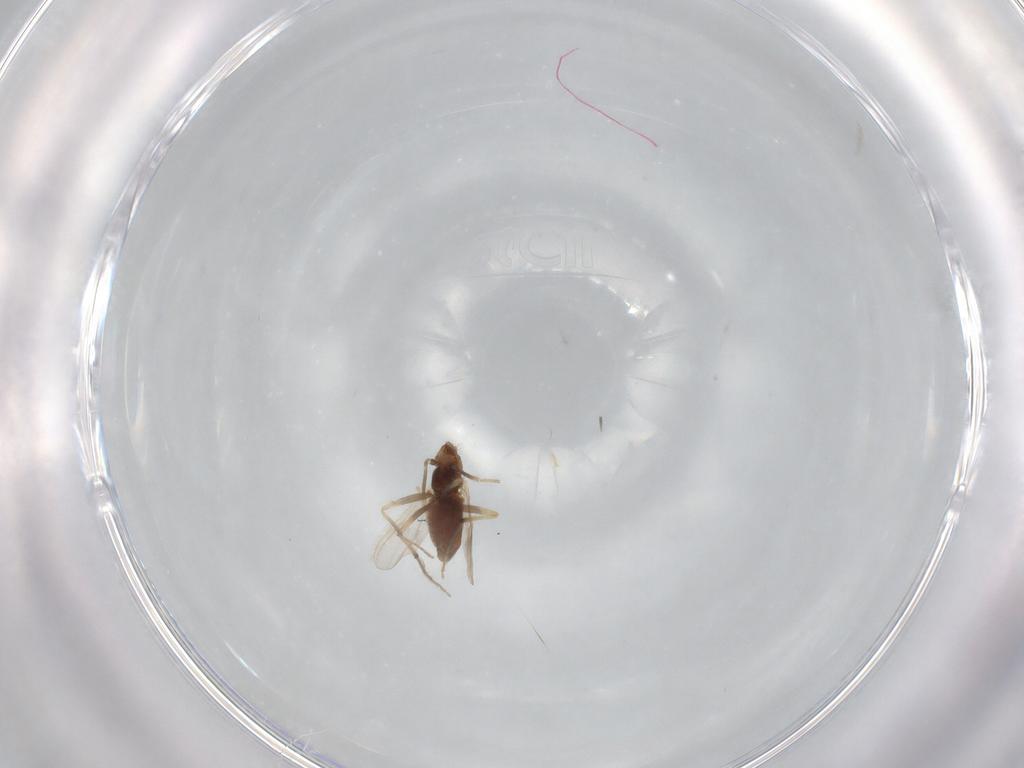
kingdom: Animalia
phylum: Arthropoda
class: Insecta
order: Diptera
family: Chironomidae
